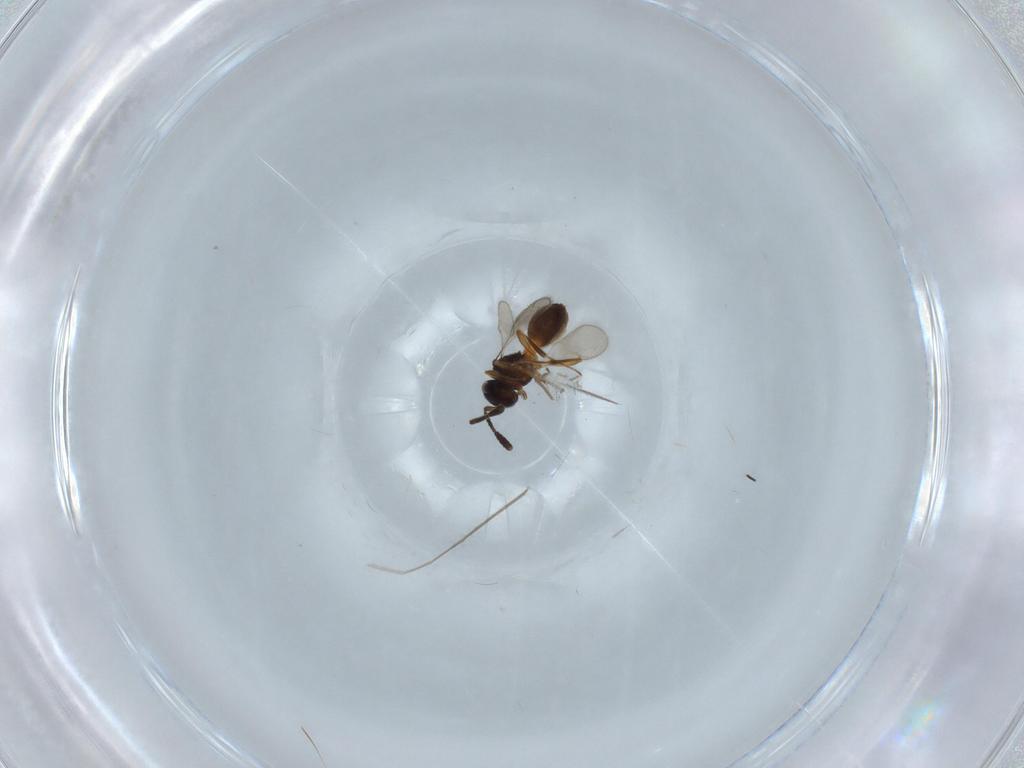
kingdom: Animalia
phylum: Arthropoda
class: Insecta
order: Hymenoptera
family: Scelionidae
